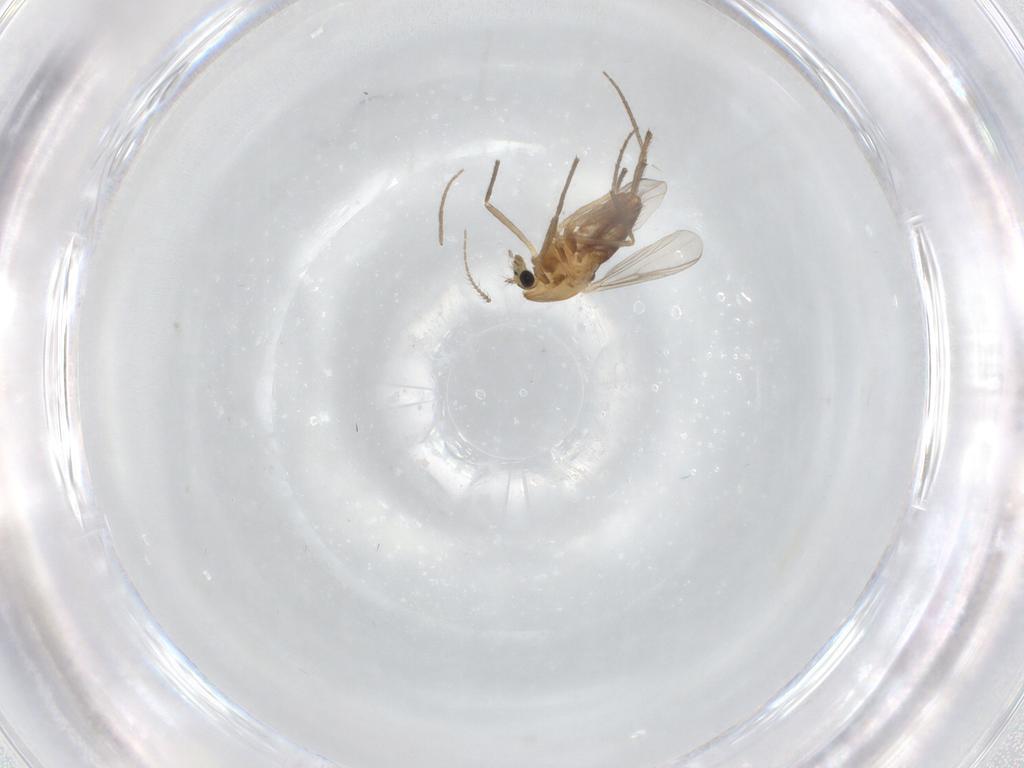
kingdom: Animalia
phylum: Arthropoda
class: Insecta
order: Diptera
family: Chironomidae
